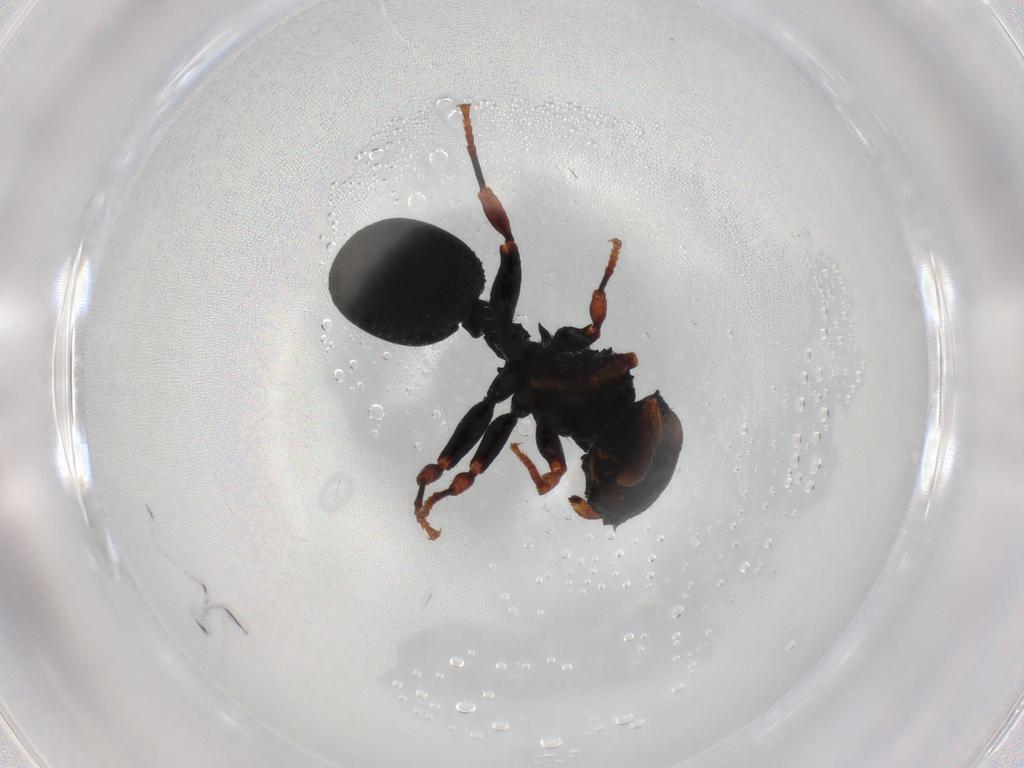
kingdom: Animalia
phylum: Arthropoda
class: Insecta
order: Hymenoptera
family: Formicidae
